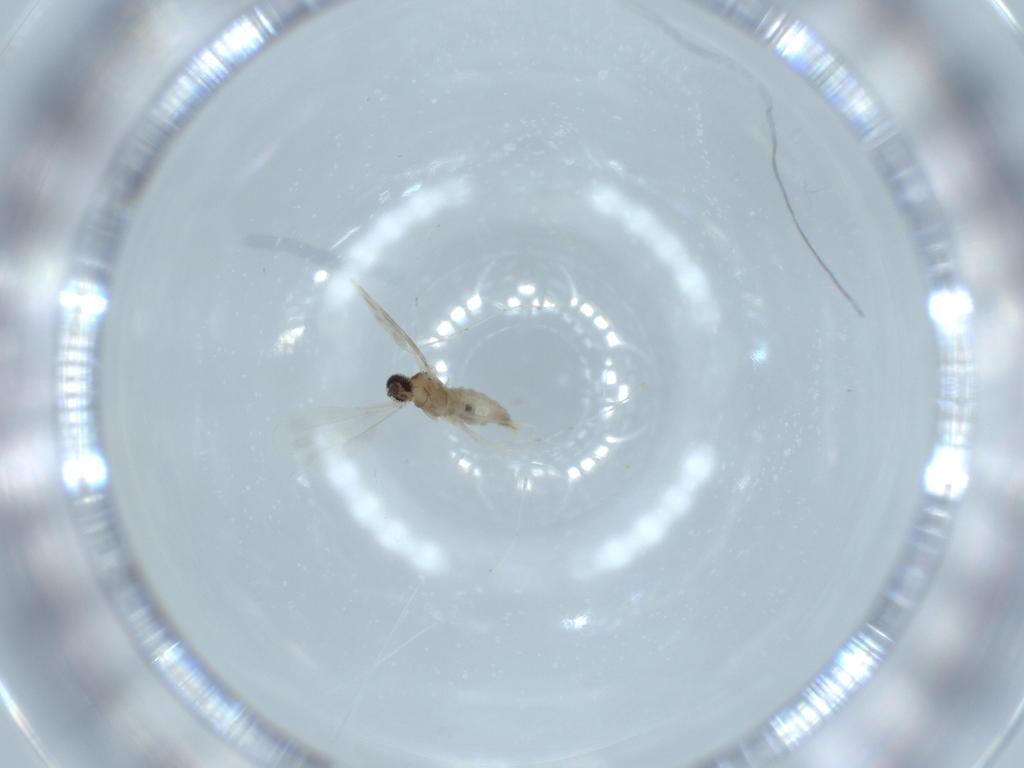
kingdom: Animalia
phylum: Arthropoda
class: Insecta
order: Diptera
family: Cecidomyiidae
